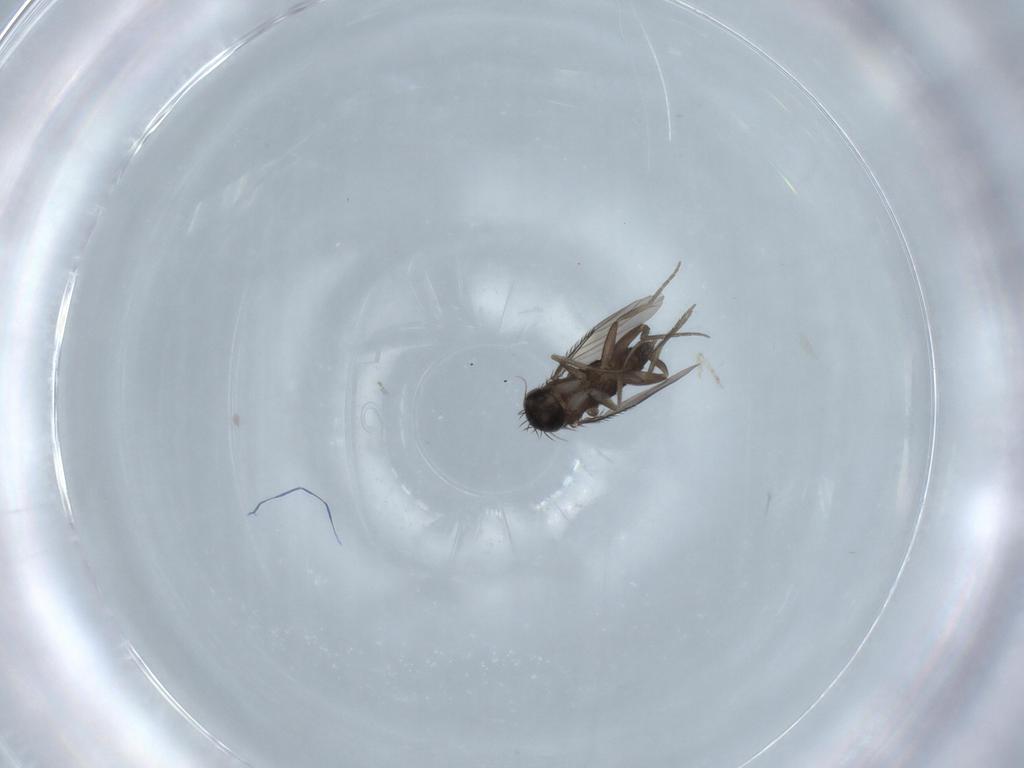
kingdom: Animalia
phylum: Arthropoda
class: Insecta
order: Diptera
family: Phoridae
